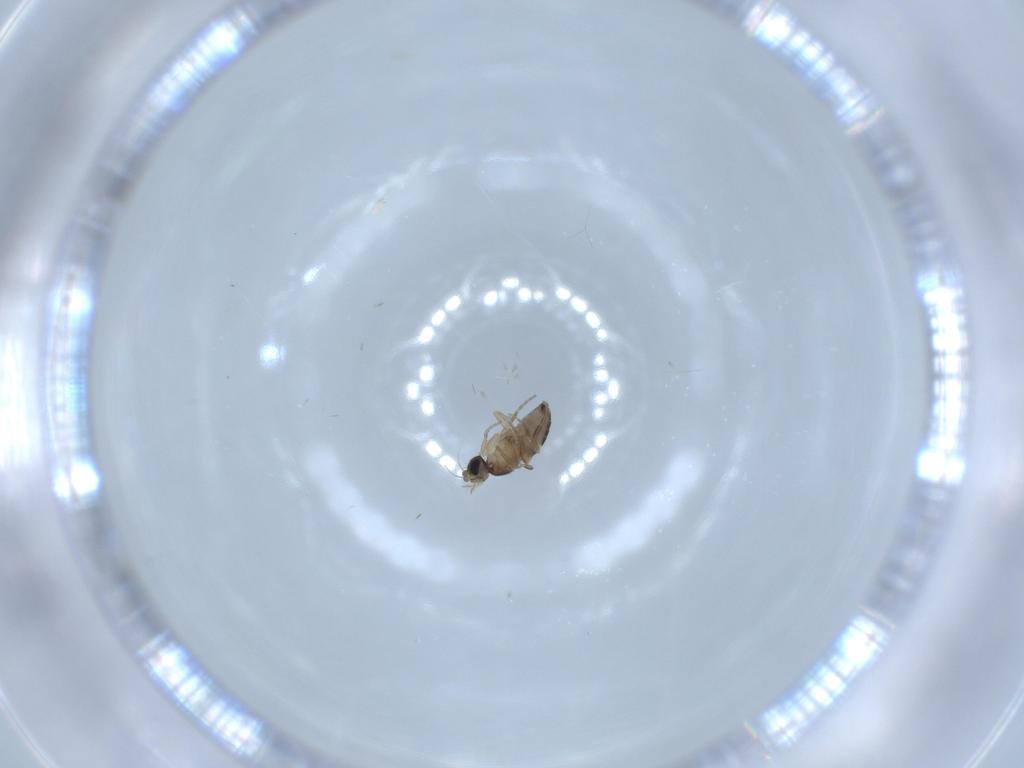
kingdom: Animalia
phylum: Arthropoda
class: Insecta
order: Diptera
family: Phoridae
